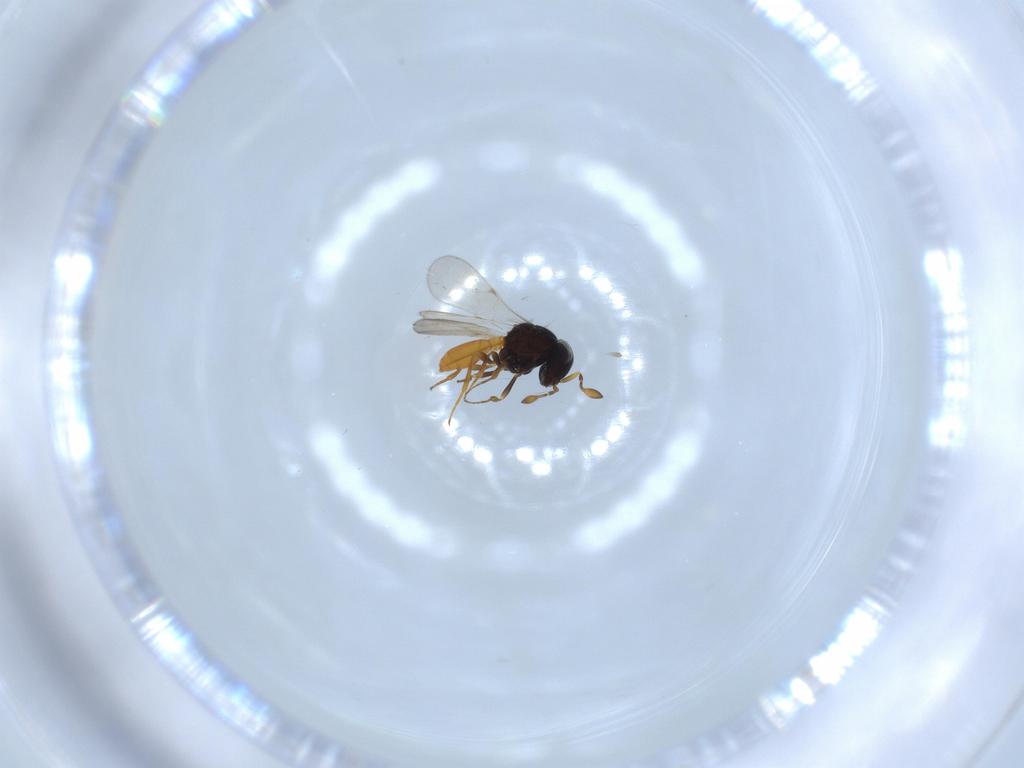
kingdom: Animalia
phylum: Arthropoda
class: Insecta
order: Hymenoptera
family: Scelionidae
